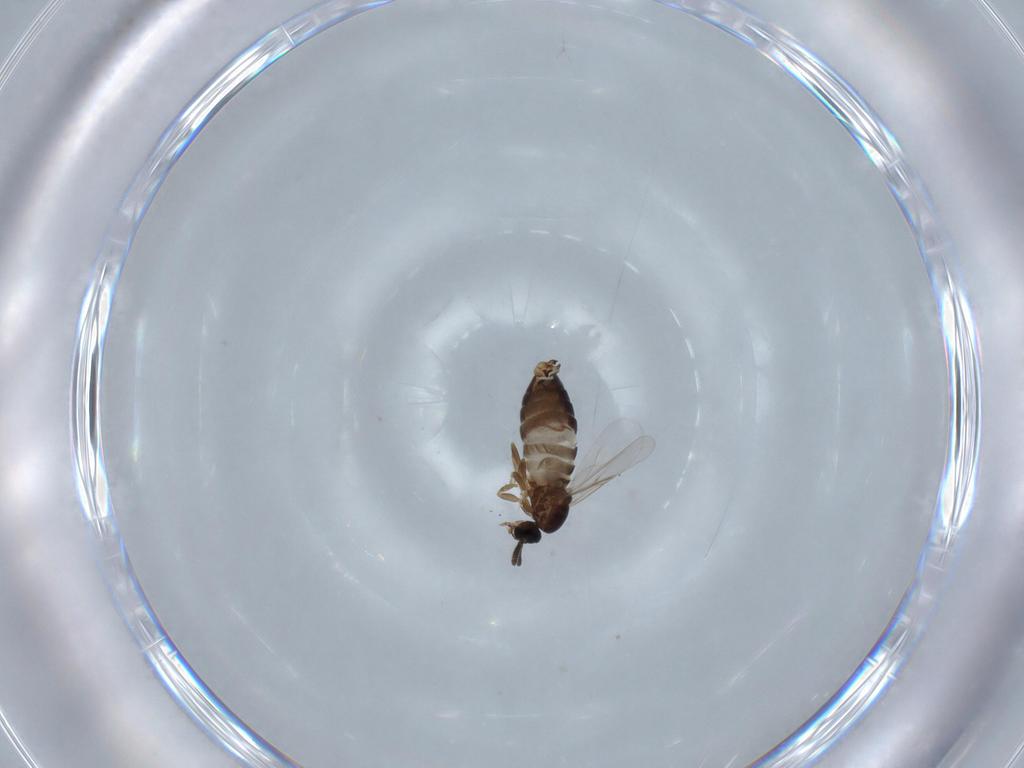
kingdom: Animalia
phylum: Arthropoda
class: Insecta
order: Diptera
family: Scatopsidae
